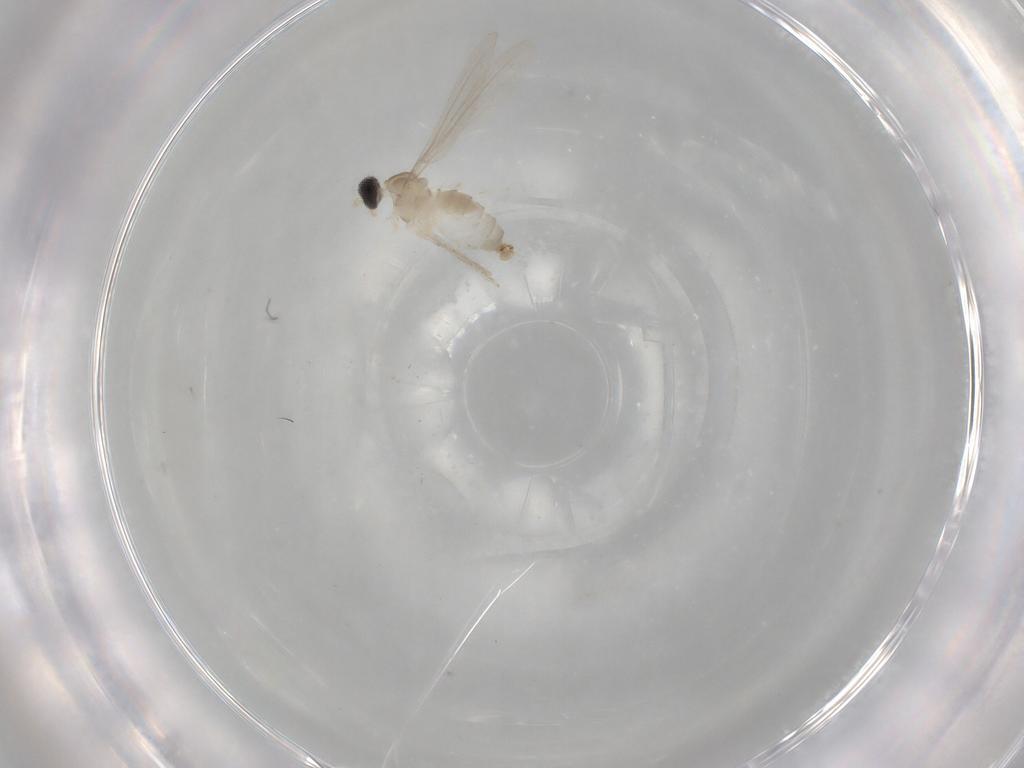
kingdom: Animalia
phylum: Arthropoda
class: Insecta
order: Diptera
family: Cecidomyiidae
